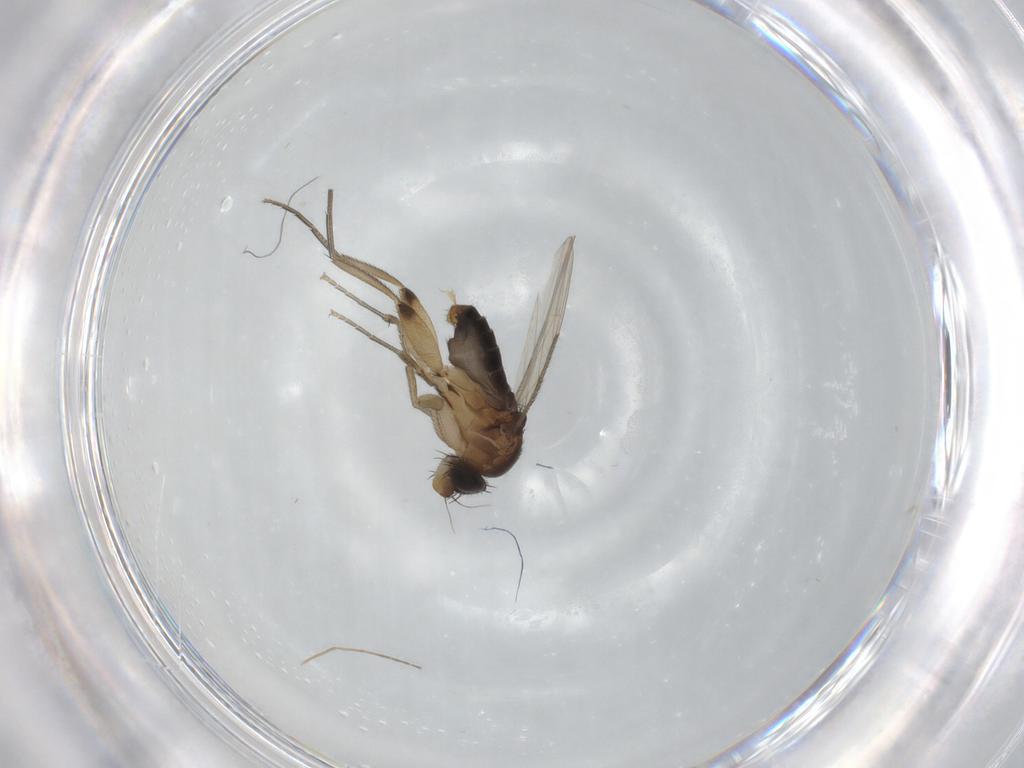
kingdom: Animalia
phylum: Arthropoda
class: Insecta
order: Diptera
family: Phoridae
